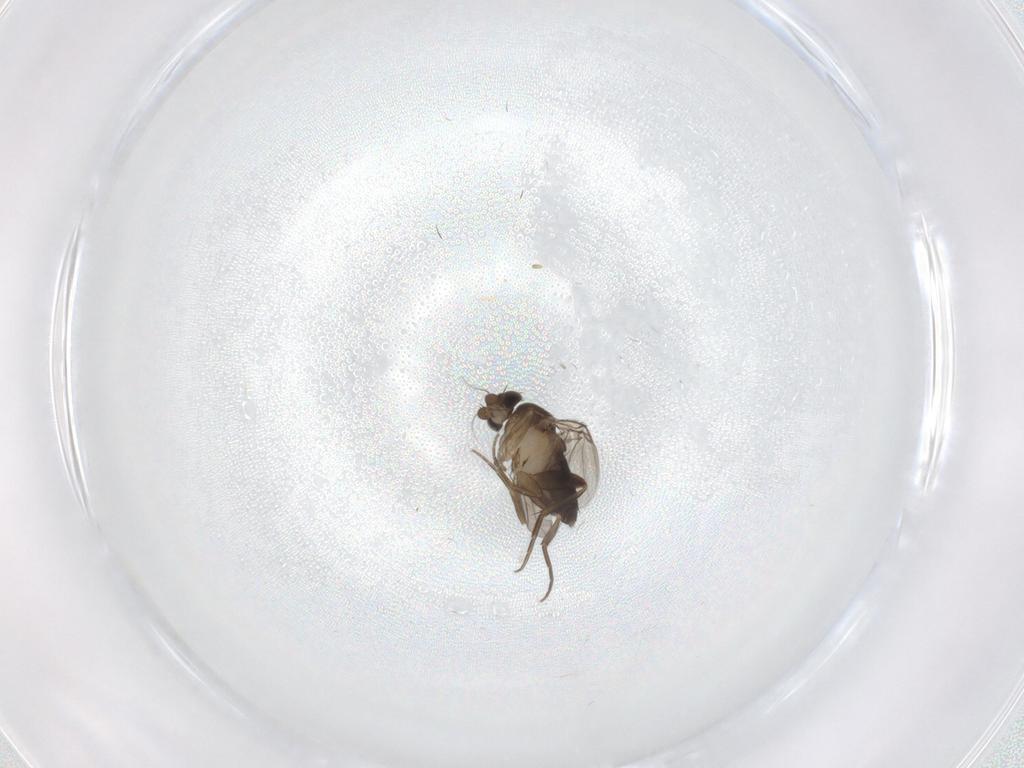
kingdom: Animalia
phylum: Arthropoda
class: Insecta
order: Diptera
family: Phoridae
